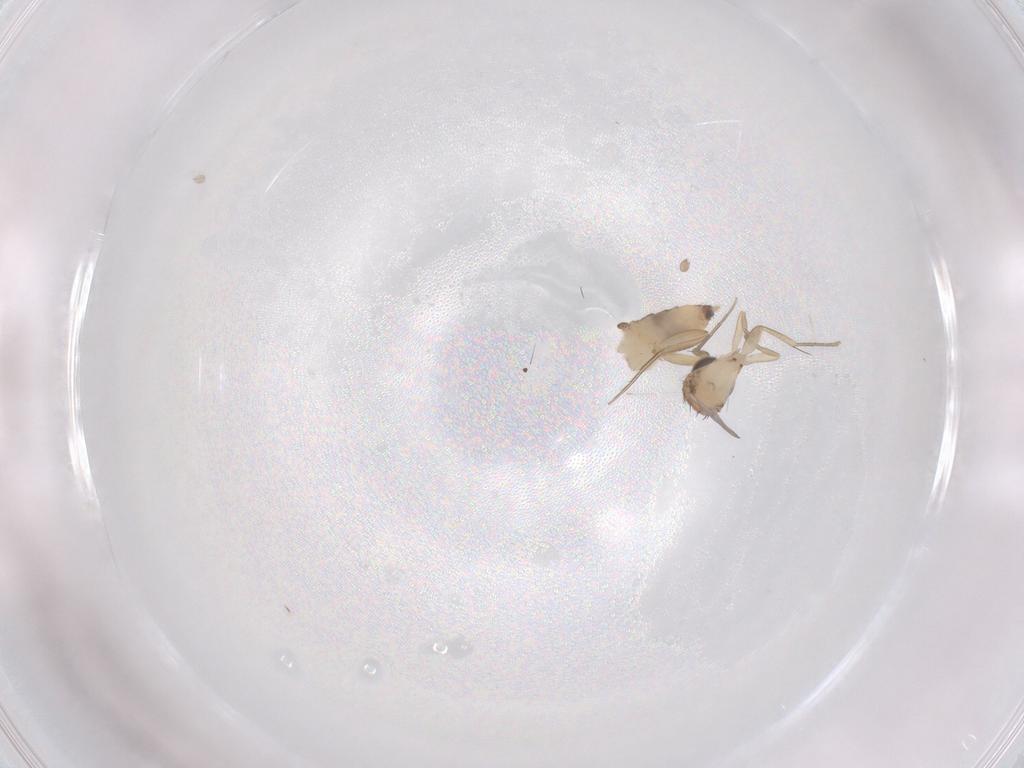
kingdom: Animalia
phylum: Arthropoda
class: Insecta
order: Diptera
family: Phoridae
